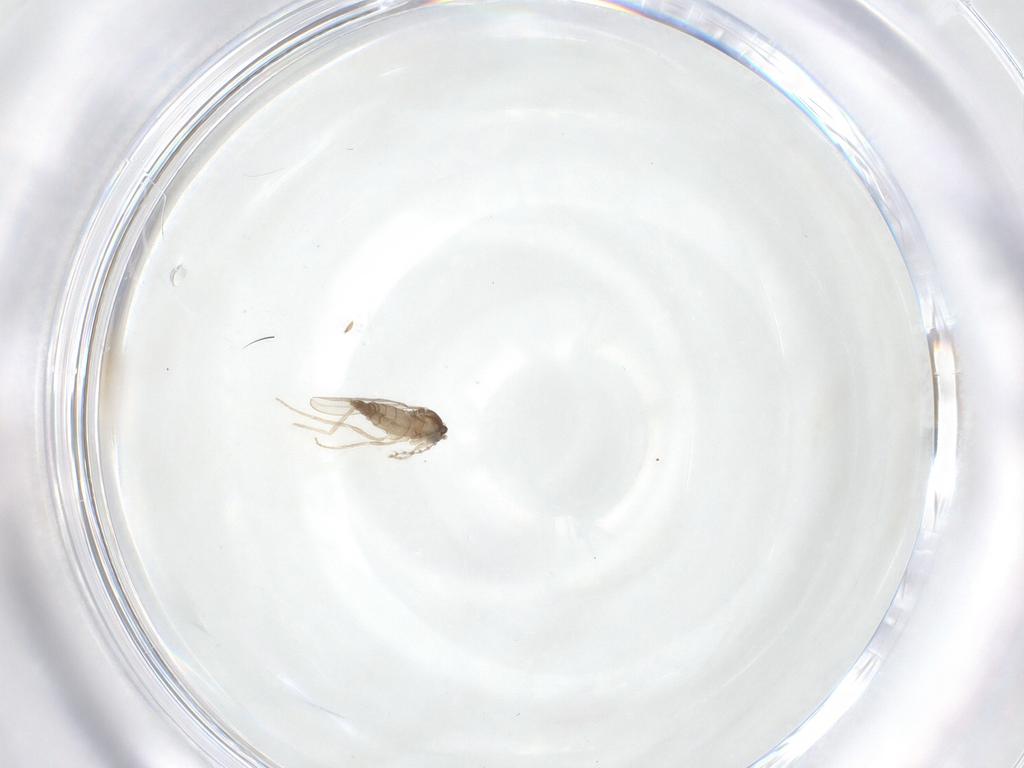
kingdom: Animalia
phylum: Arthropoda
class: Insecta
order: Diptera
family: Cecidomyiidae
